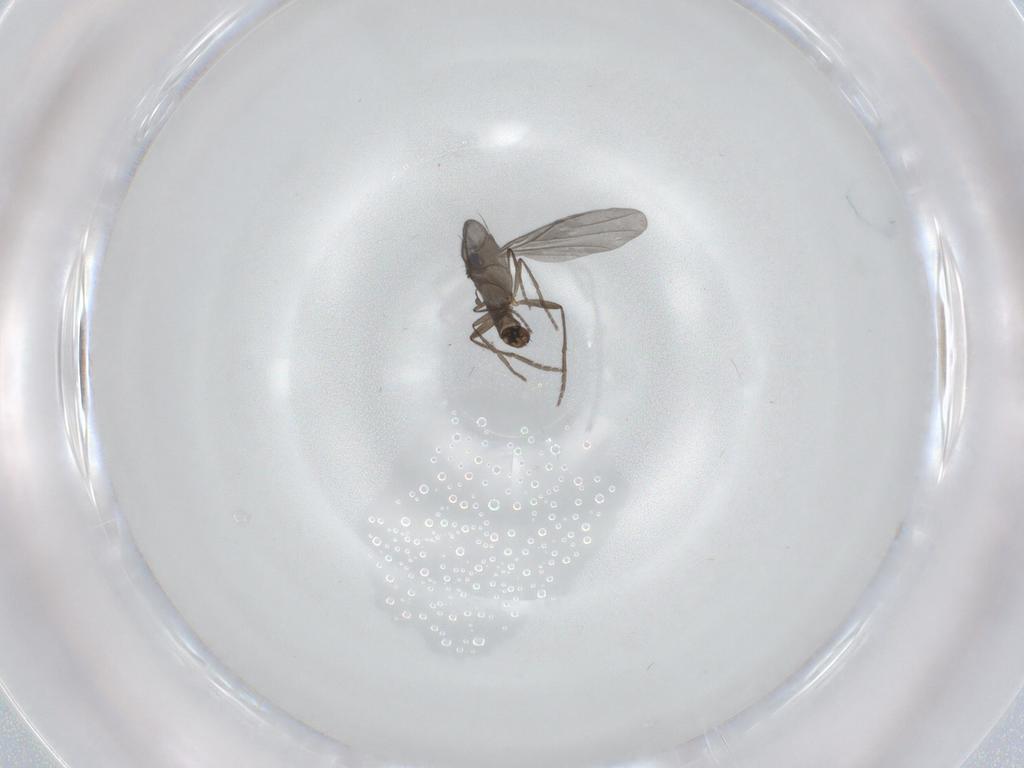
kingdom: Animalia
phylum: Arthropoda
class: Insecta
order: Diptera
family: Phoridae
